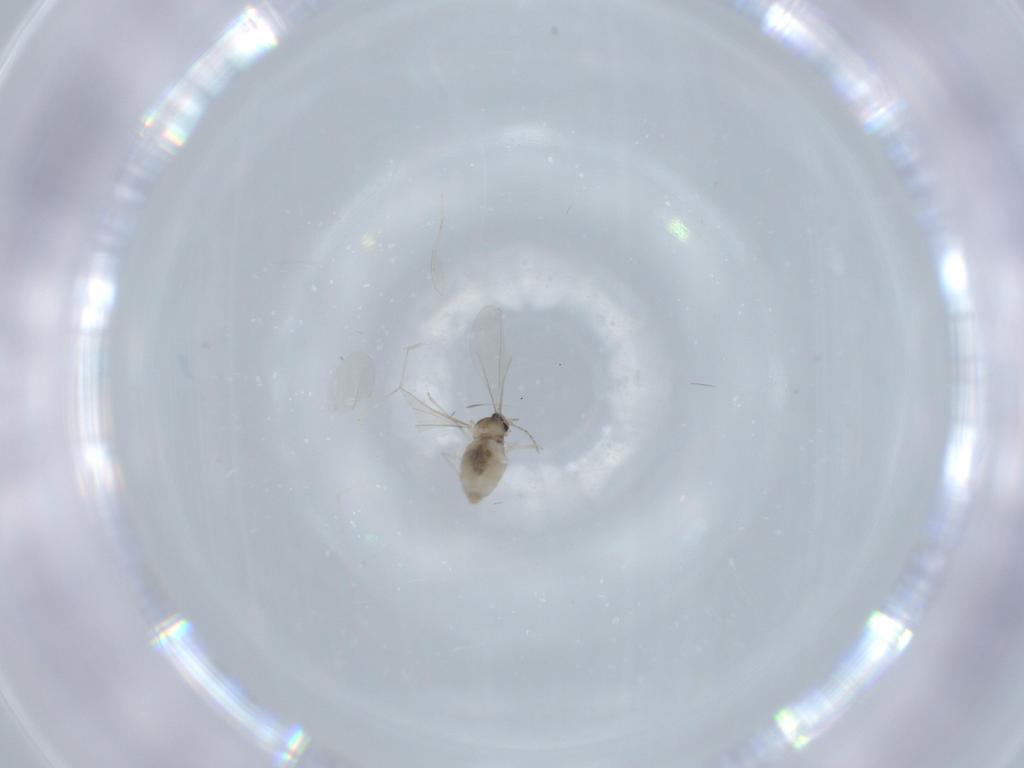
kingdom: Animalia
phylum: Arthropoda
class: Insecta
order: Diptera
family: Cecidomyiidae
